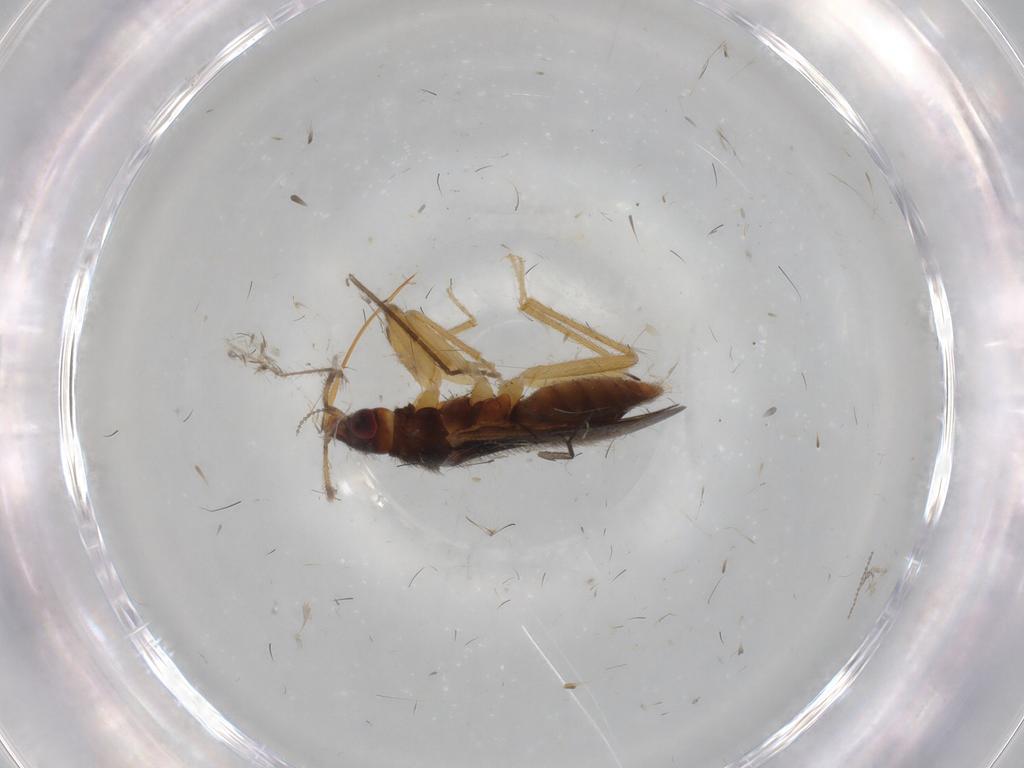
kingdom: Animalia
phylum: Arthropoda
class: Insecta
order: Hemiptera
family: Anthocoridae
